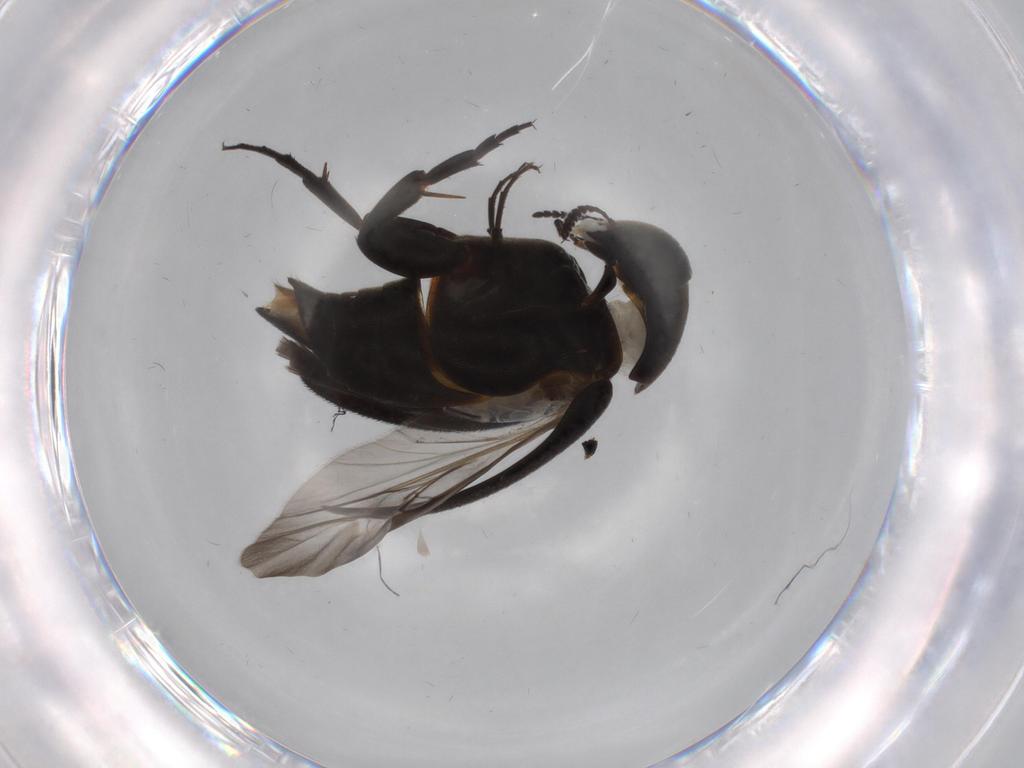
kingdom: Animalia
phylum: Arthropoda
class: Insecta
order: Coleoptera
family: Mordellidae
